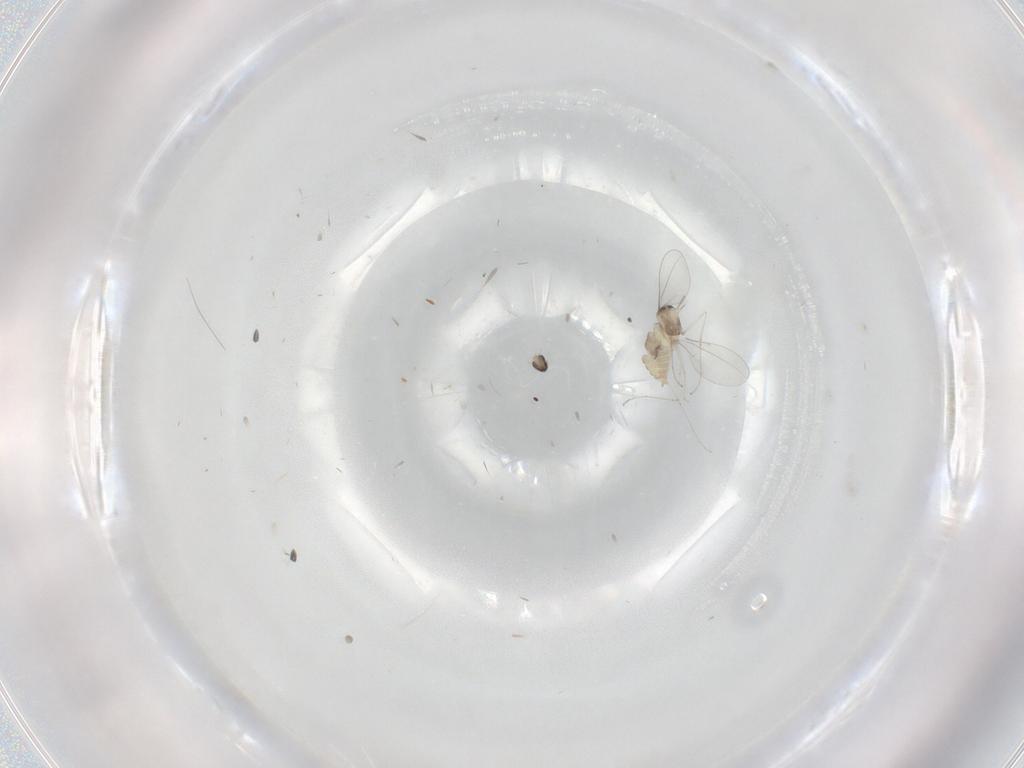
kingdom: Animalia
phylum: Arthropoda
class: Insecta
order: Diptera
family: Cecidomyiidae
